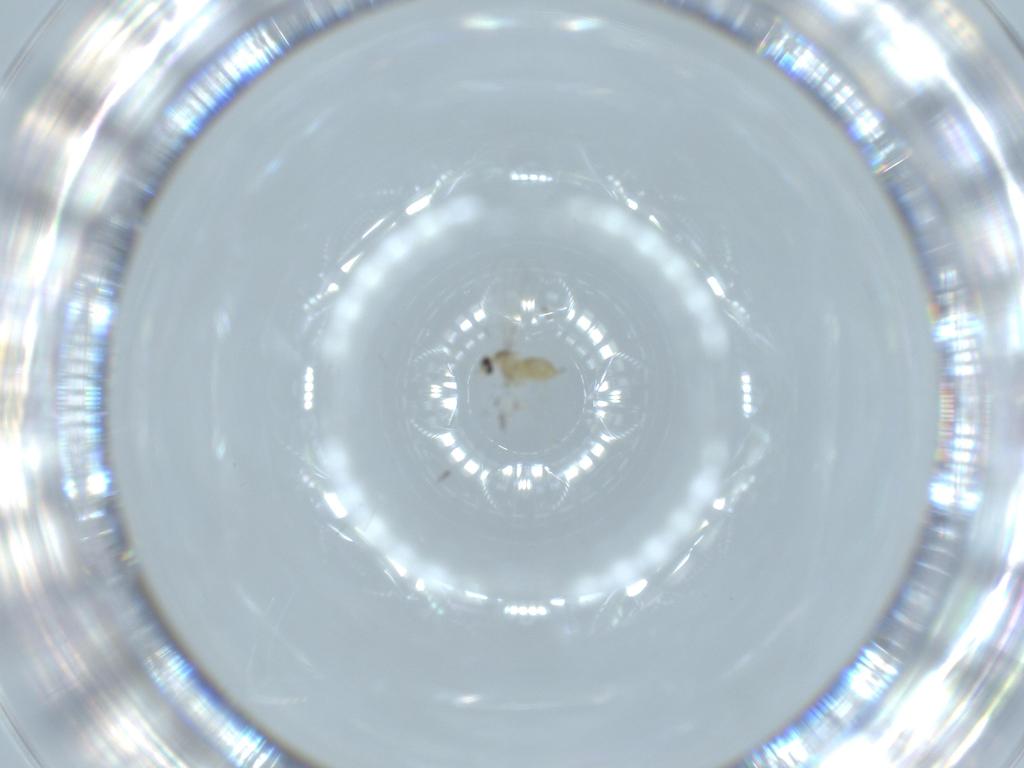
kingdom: Animalia
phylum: Arthropoda
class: Insecta
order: Diptera
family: Cecidomyiidae
